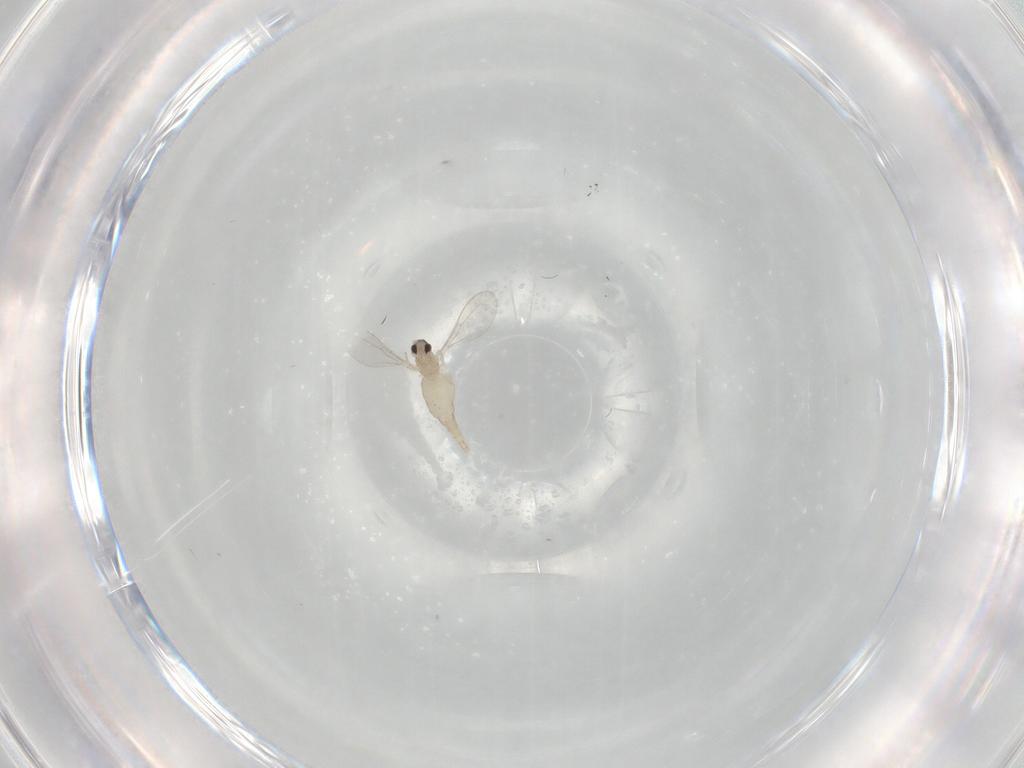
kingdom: Animalia
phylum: Arthropoda
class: Insecta
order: Diptera
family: Cecidomyiidae
